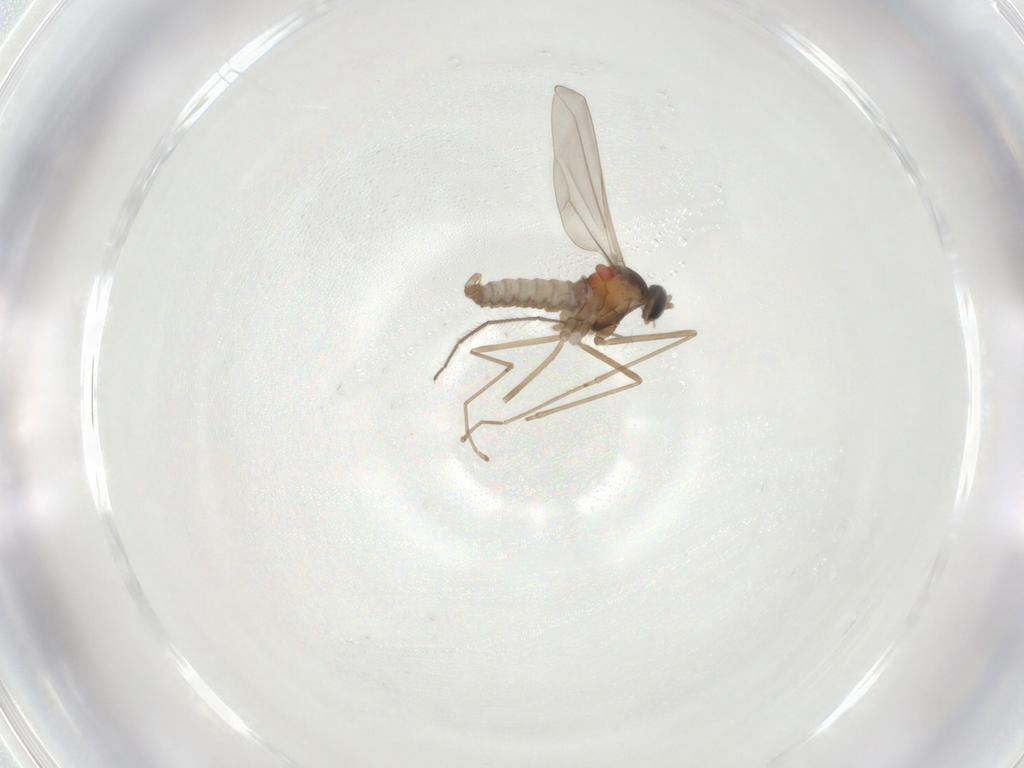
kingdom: Animalia
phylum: Arthropoda
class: Insecta
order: Diptera
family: Cecidomyiidae
